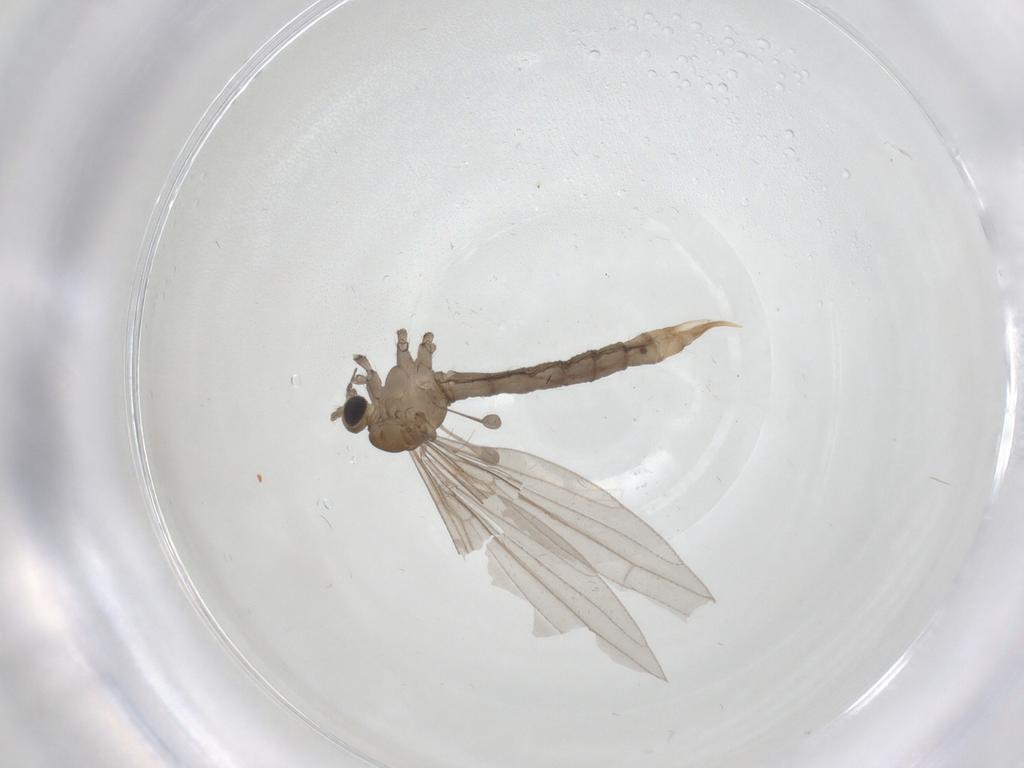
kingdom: Animalia
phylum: Arthropoda
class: Insecta
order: Diptera
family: Limoniidae
